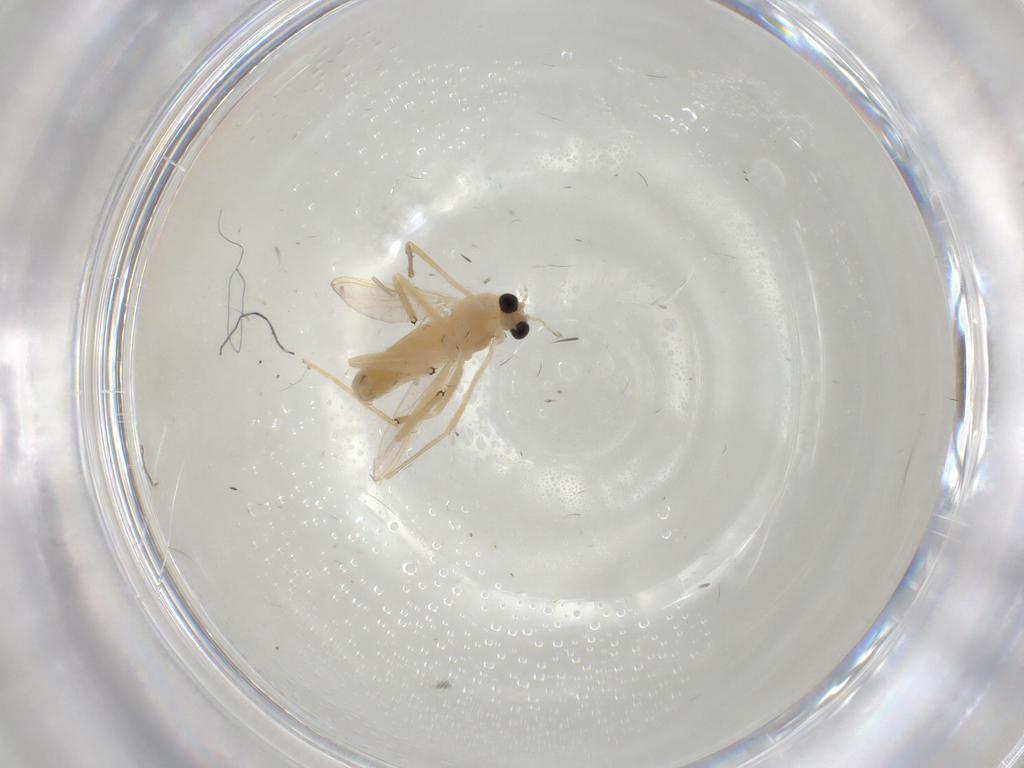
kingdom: Animalia
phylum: Arthropoda
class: Insecta
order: Diptera
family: Chironomidae
